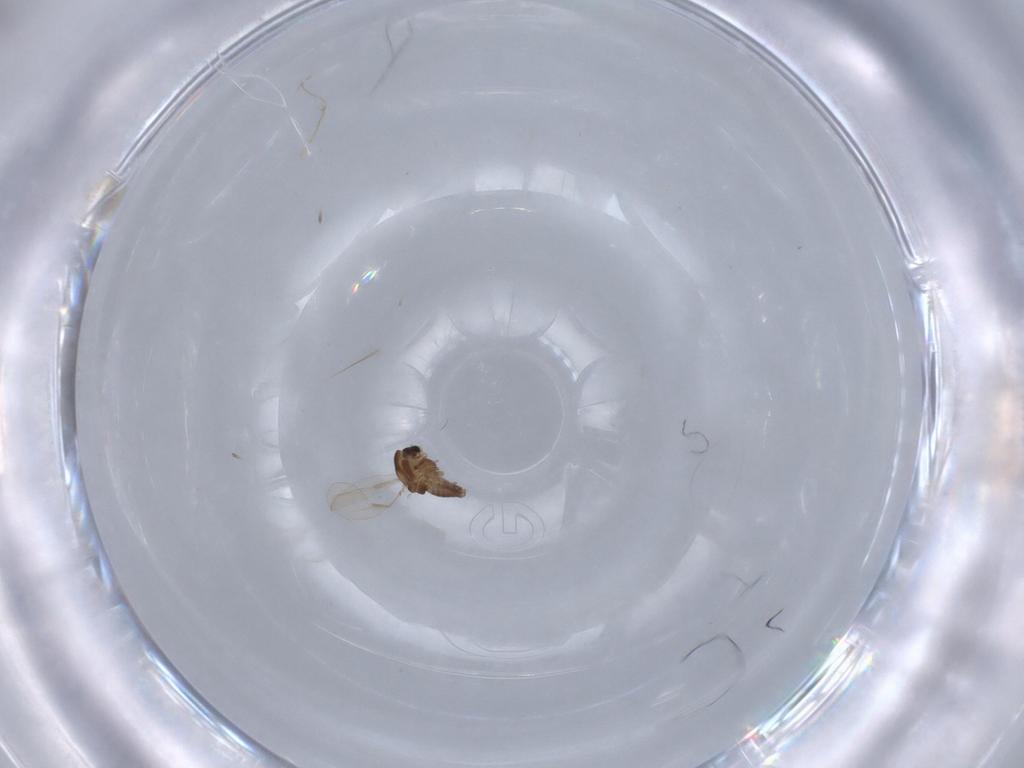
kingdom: Animalia
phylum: Arthropoda
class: Insecta
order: Diptera
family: Chironomidae
